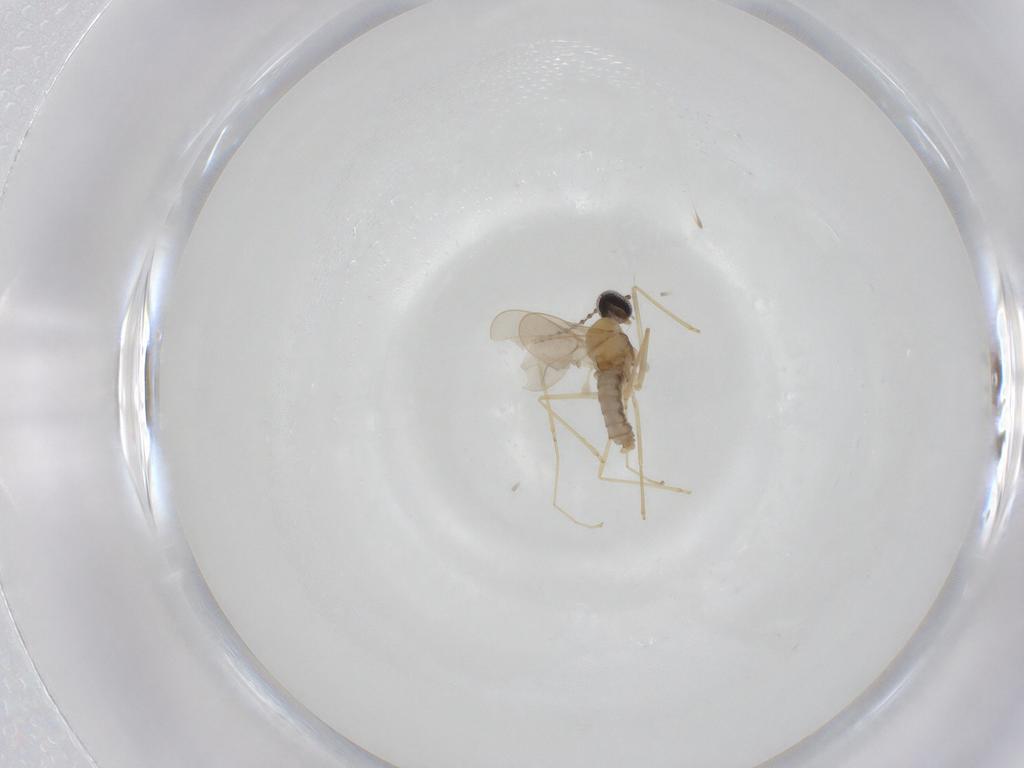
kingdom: Animalia
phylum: Arthropoda
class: Insecta
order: Diptera
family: Cecidomyiidae
